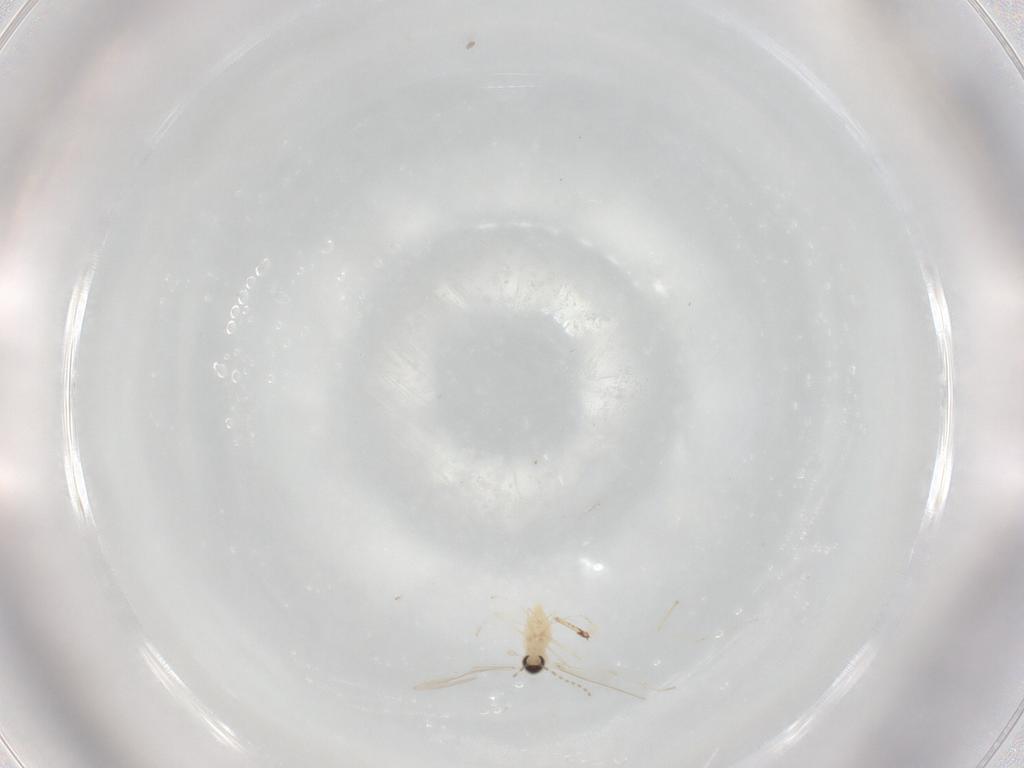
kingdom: Animalia
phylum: Arthropoda
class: Insecta
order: Diptera
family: Cecidomyiidae
